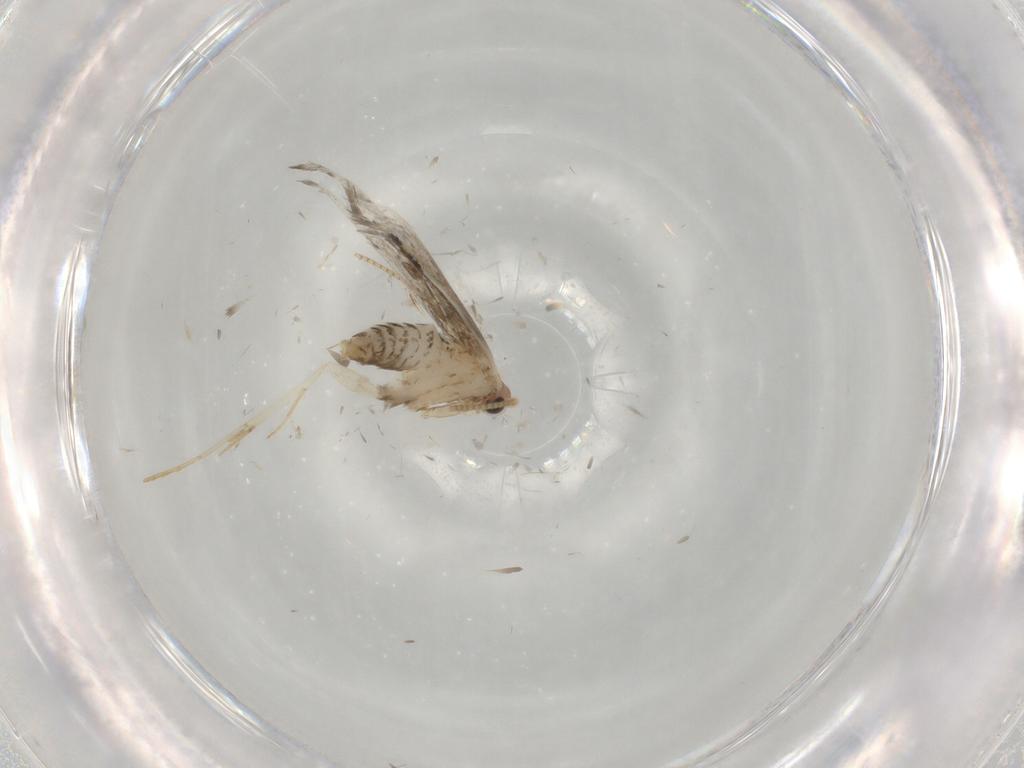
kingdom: Animalia
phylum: Arthropoda
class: Insecta
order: Lepidoptera
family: Tineidae
